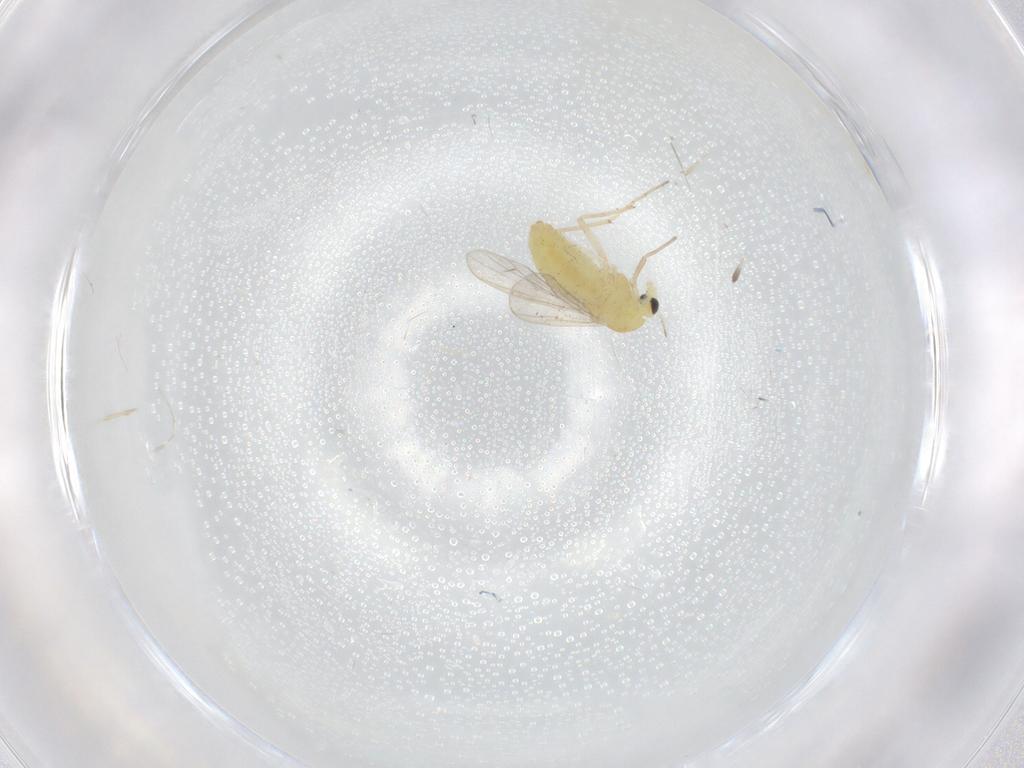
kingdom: Animalia
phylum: Arthropoda
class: Insecta
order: Diptera
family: Chironomidae
